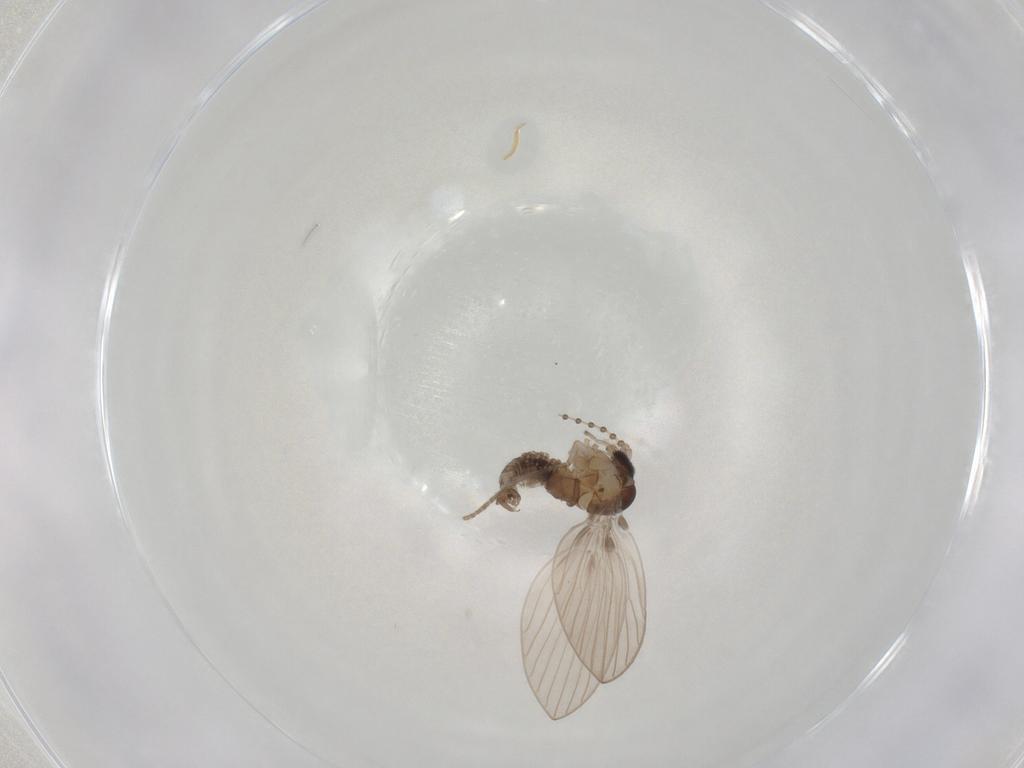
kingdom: Animalia
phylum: Arthropoda
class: Insecta
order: Diptera
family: Psychodidae
